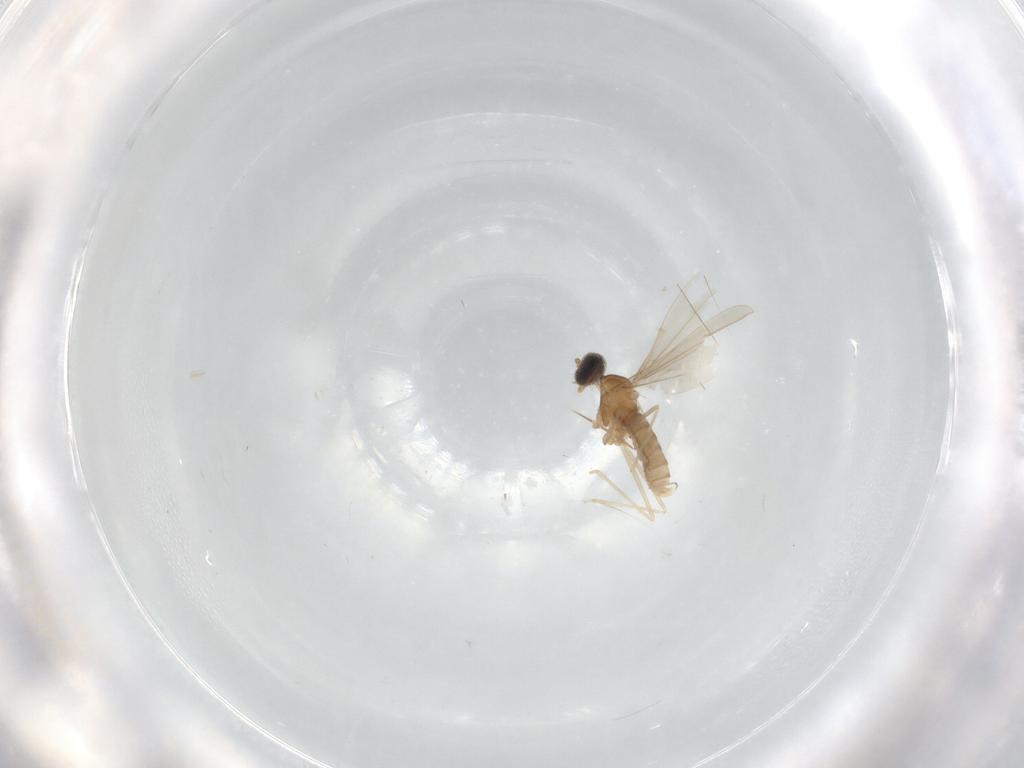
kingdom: Animalia
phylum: Arthropoda
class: Insecta
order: Diptera
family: Cecidomyiidae
